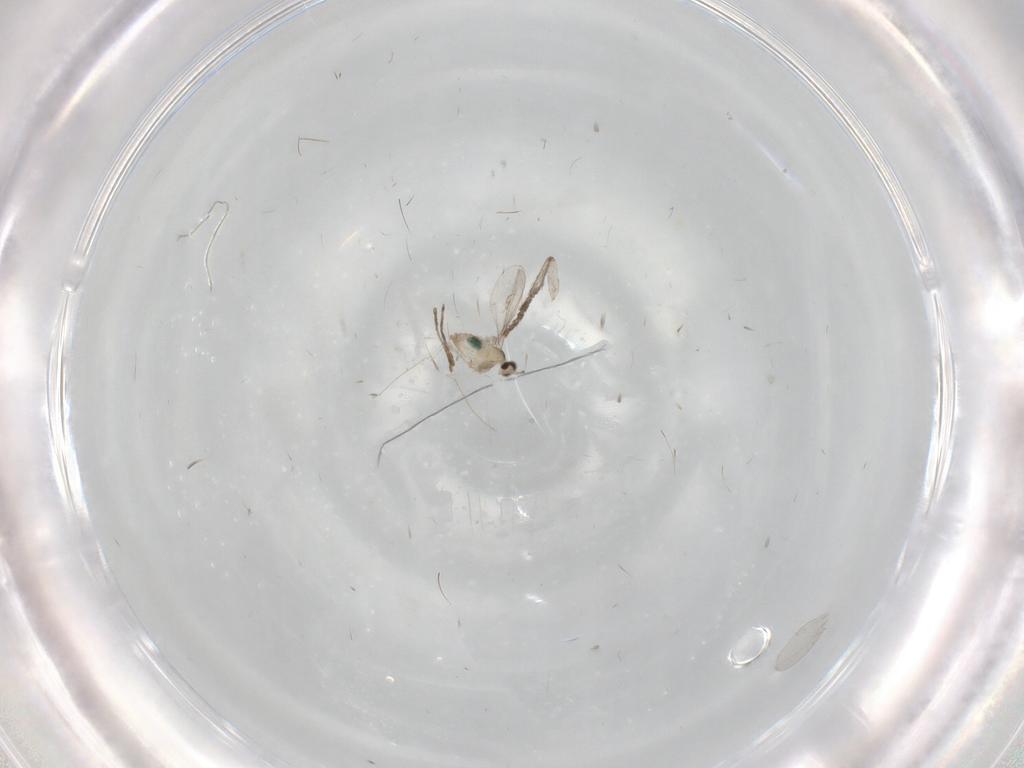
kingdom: Animalia
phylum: Arthropoda
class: Insecta
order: Diptera
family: Chironomidae
